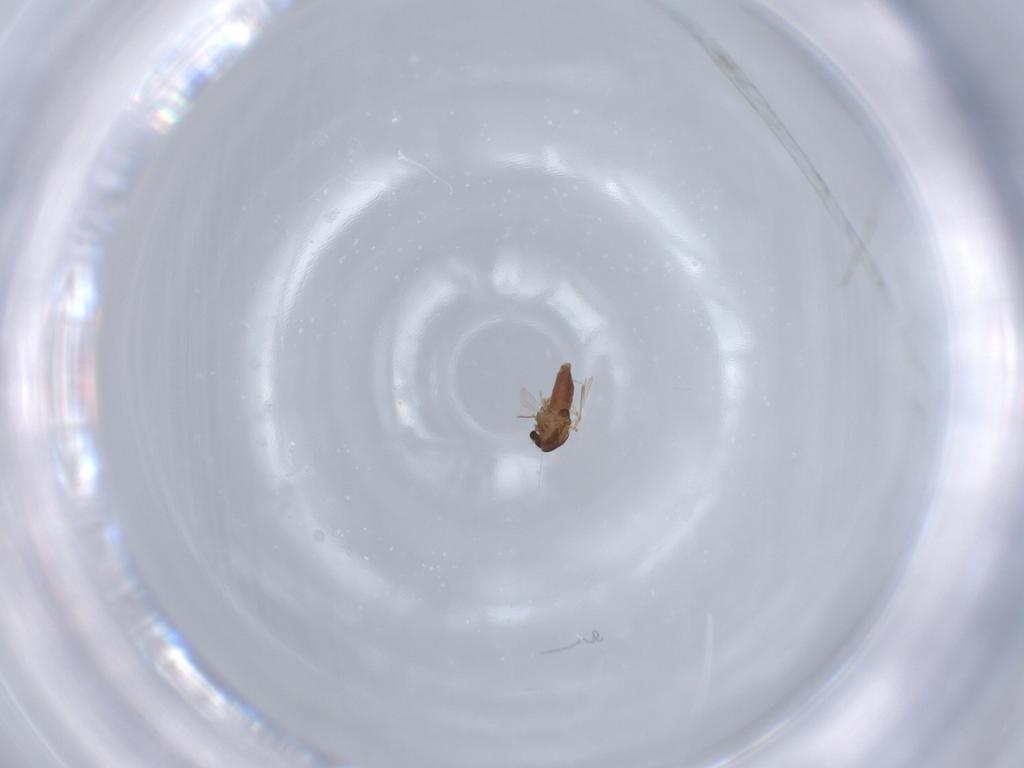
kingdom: Animalia
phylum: Arthropoda
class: Insecta
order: Diptera
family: Chironomidae
